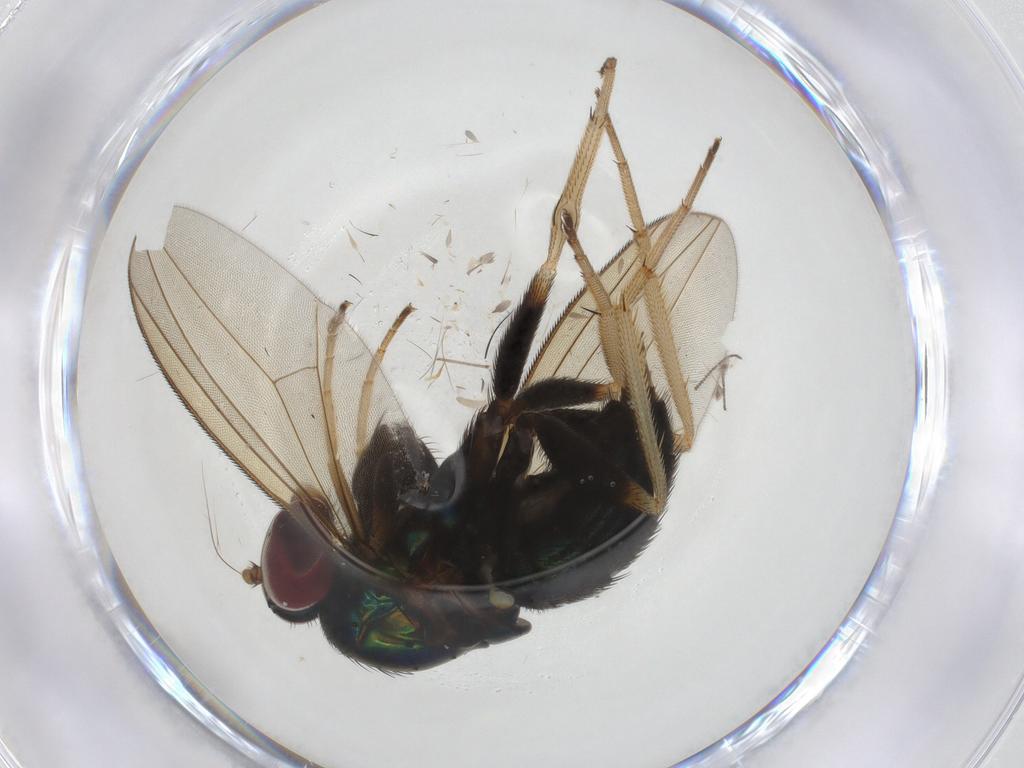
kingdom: Animalia
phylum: Arthropoda
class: Insecta
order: Diptera
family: Dolichopodidae
